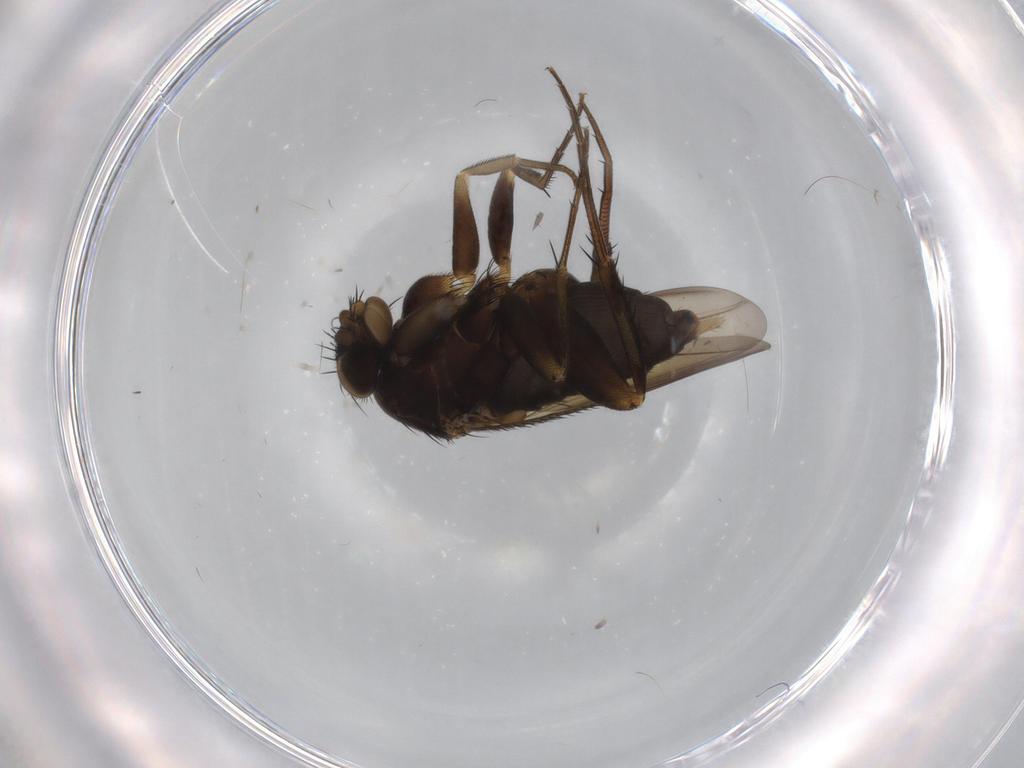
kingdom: Animalia
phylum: Arthropoda
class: Insecta
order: Diptera
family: Phoridae
